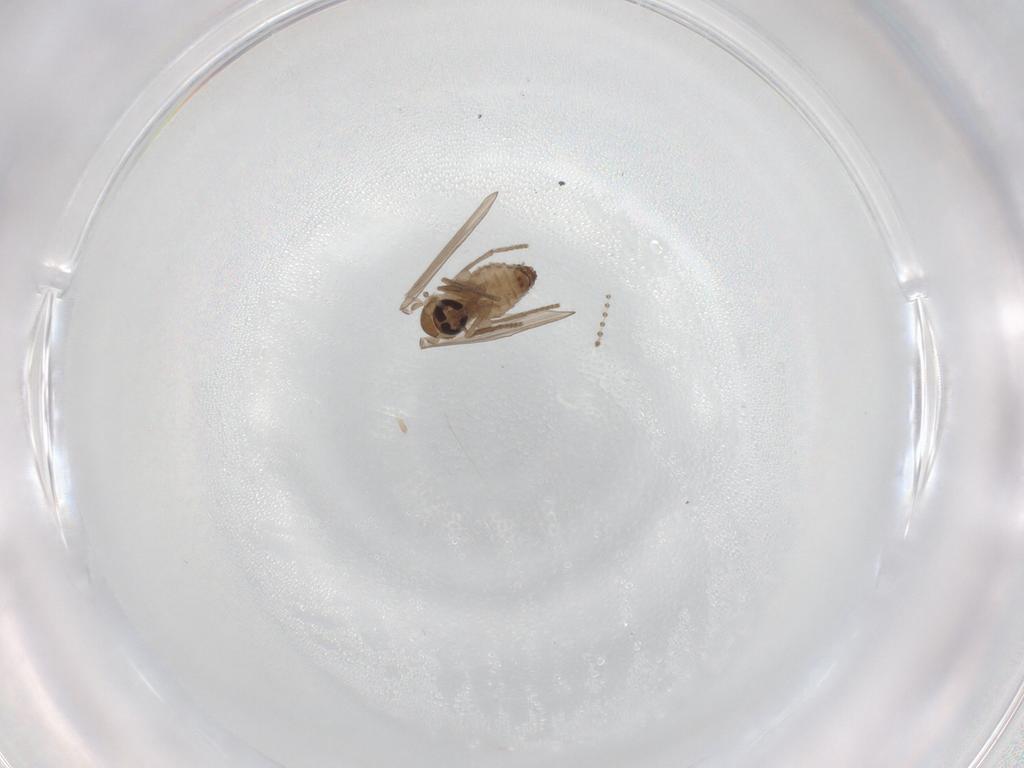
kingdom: Animalia
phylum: Arthropoda
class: Insecta
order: Diptera
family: Psychodidae
